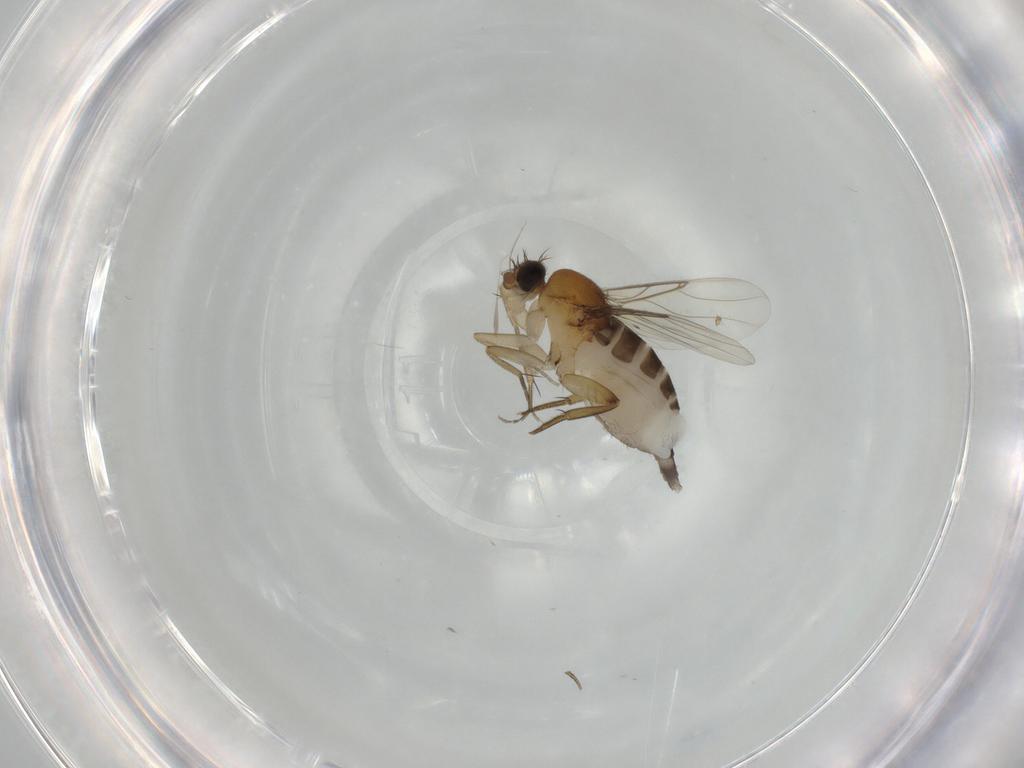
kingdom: Animalia
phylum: Arthropoda
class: Insecta
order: Diptera
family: Phoridae
